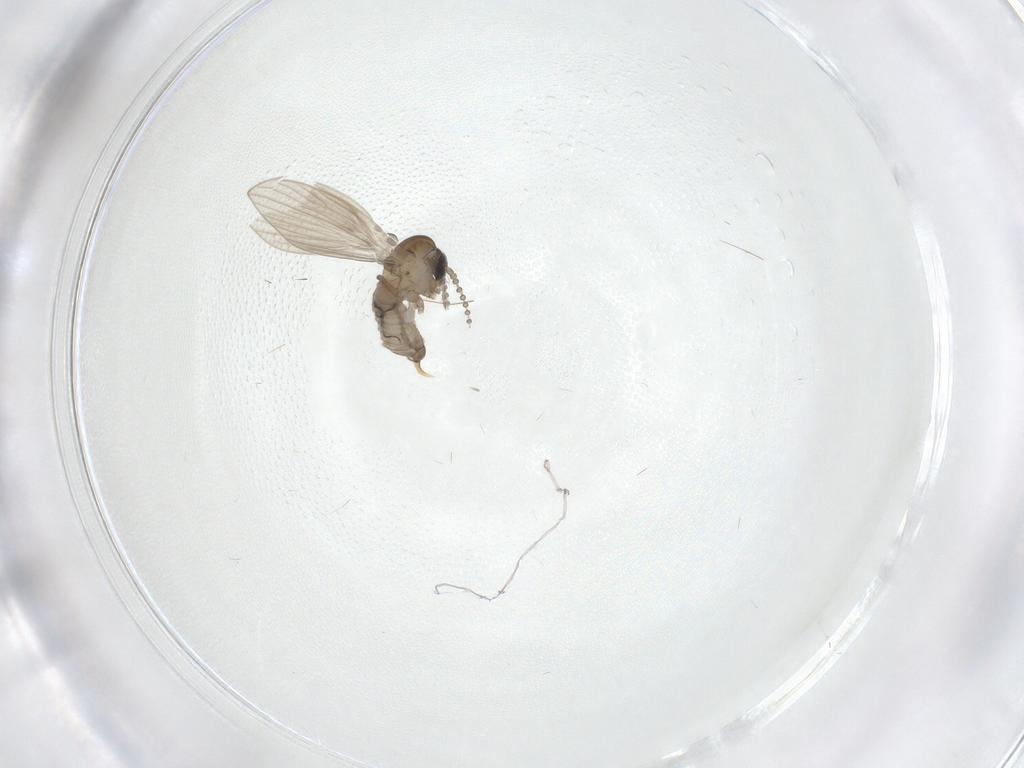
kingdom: Animalia
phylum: Arthropoda
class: Insecta
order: Diptera
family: Psychodidae
